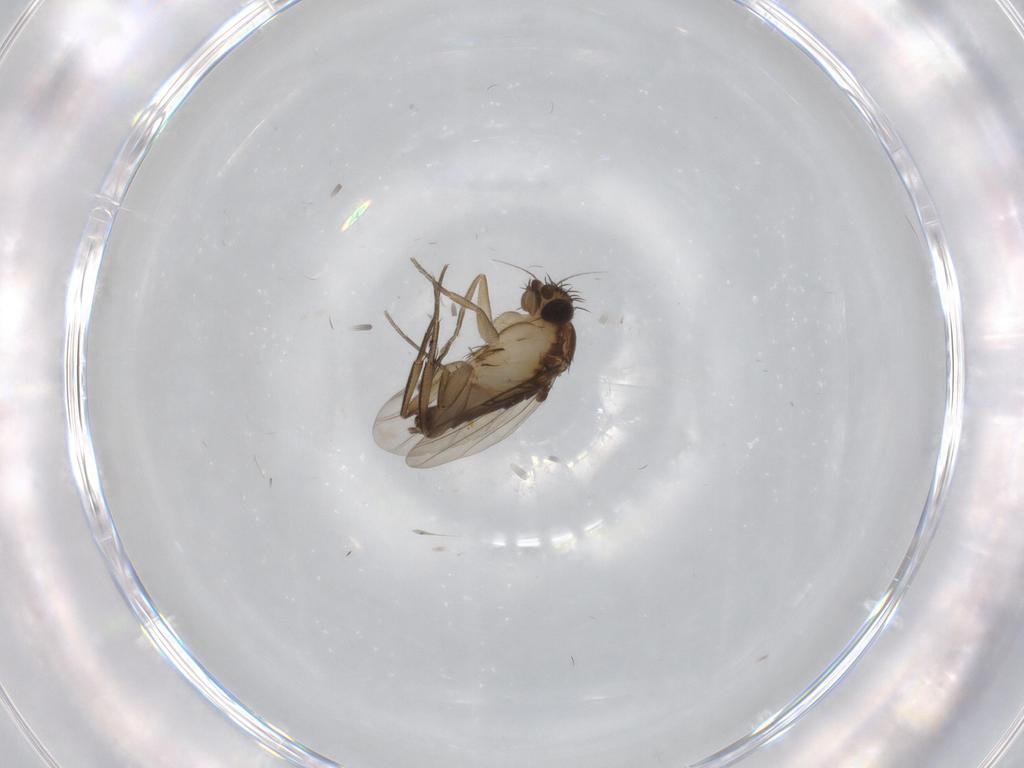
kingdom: Animalia
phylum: Arthropoda
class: Insecta
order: Diptera
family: Phoridae
